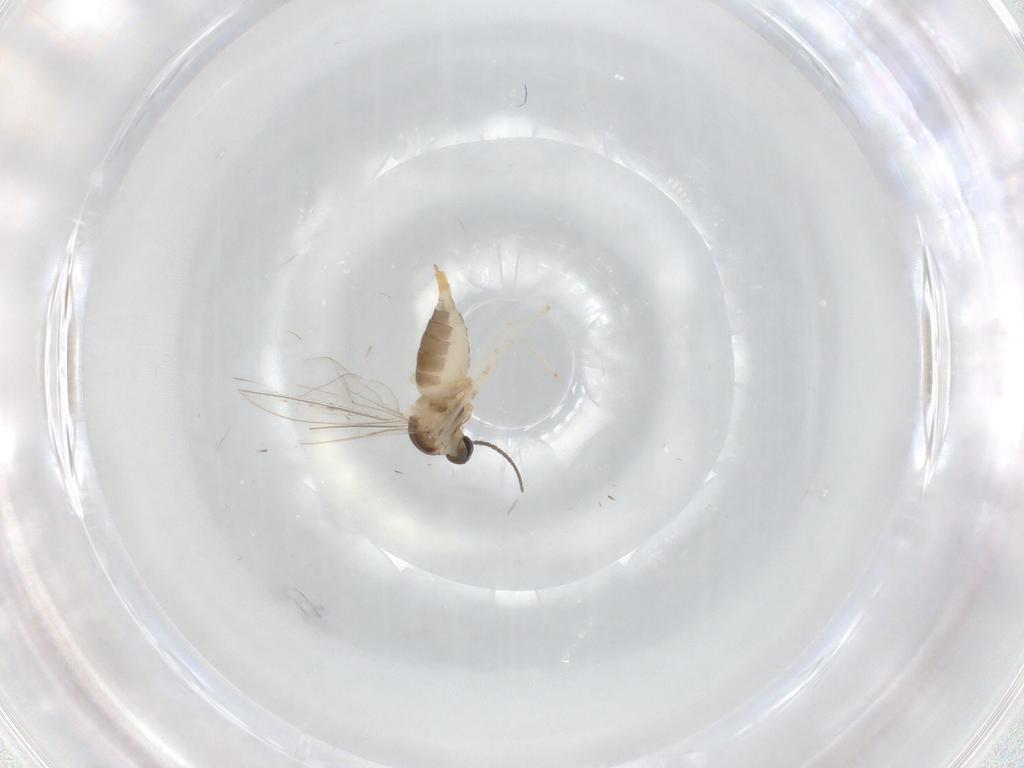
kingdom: Animalia
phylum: Arthropoda
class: Insecta
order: Diptera
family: Cecidomyiidae
